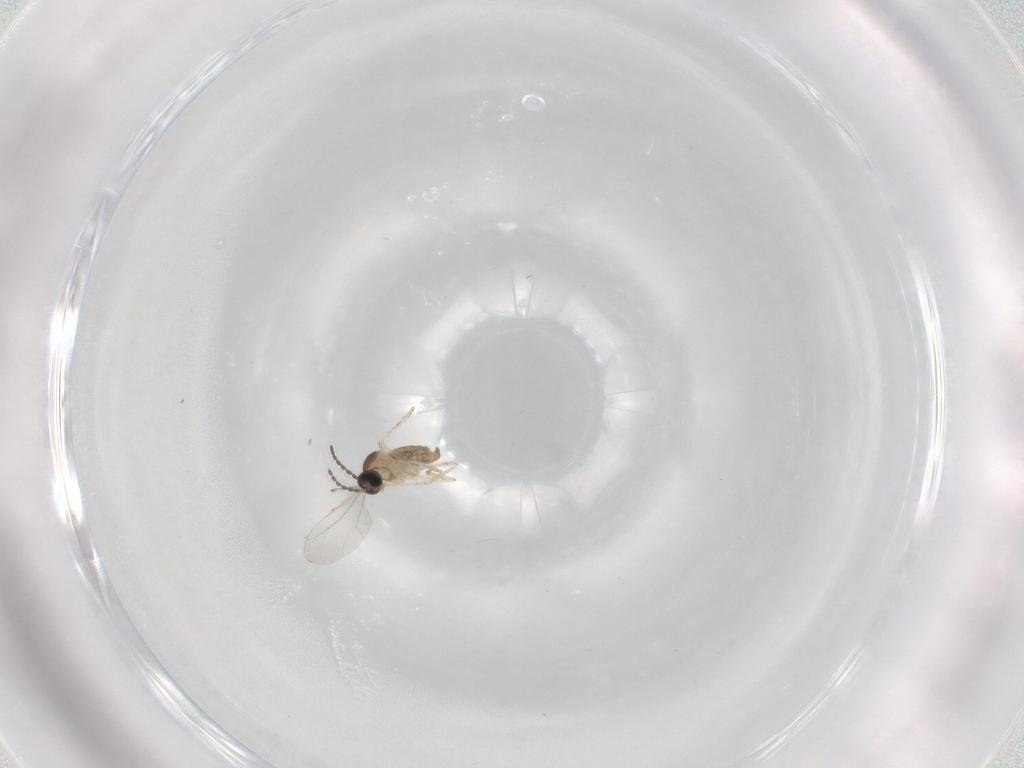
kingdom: Animalia
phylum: Arthropoda
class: Insecta
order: Diptera
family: Cecidomyiidae
